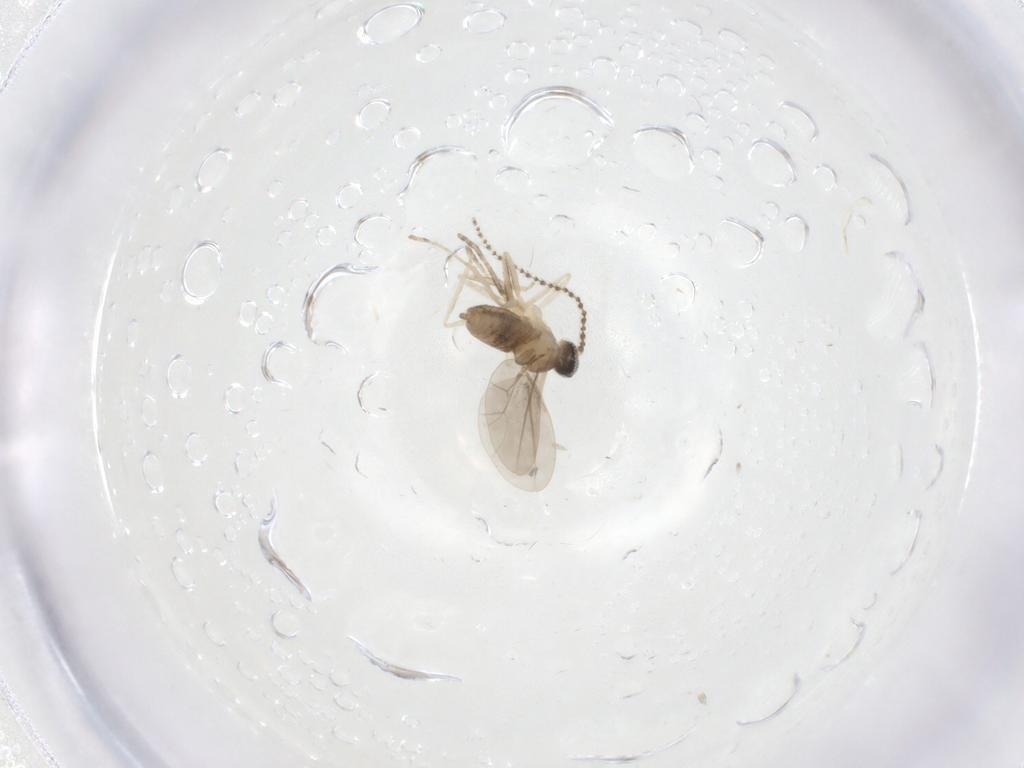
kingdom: Animalia
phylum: Arthropoda
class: Insecta
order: Diptera
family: Cecidomyiidae
